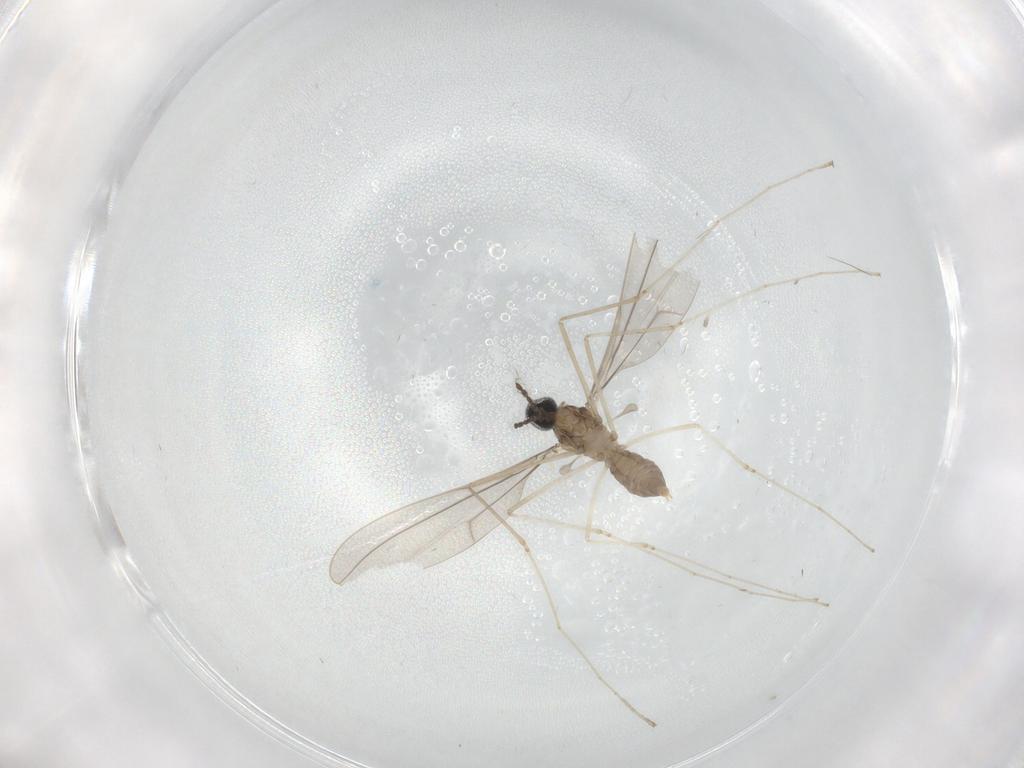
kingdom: Animalia
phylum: Arthropoda
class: Insecta
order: Diptera
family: Cecidomyiidae
